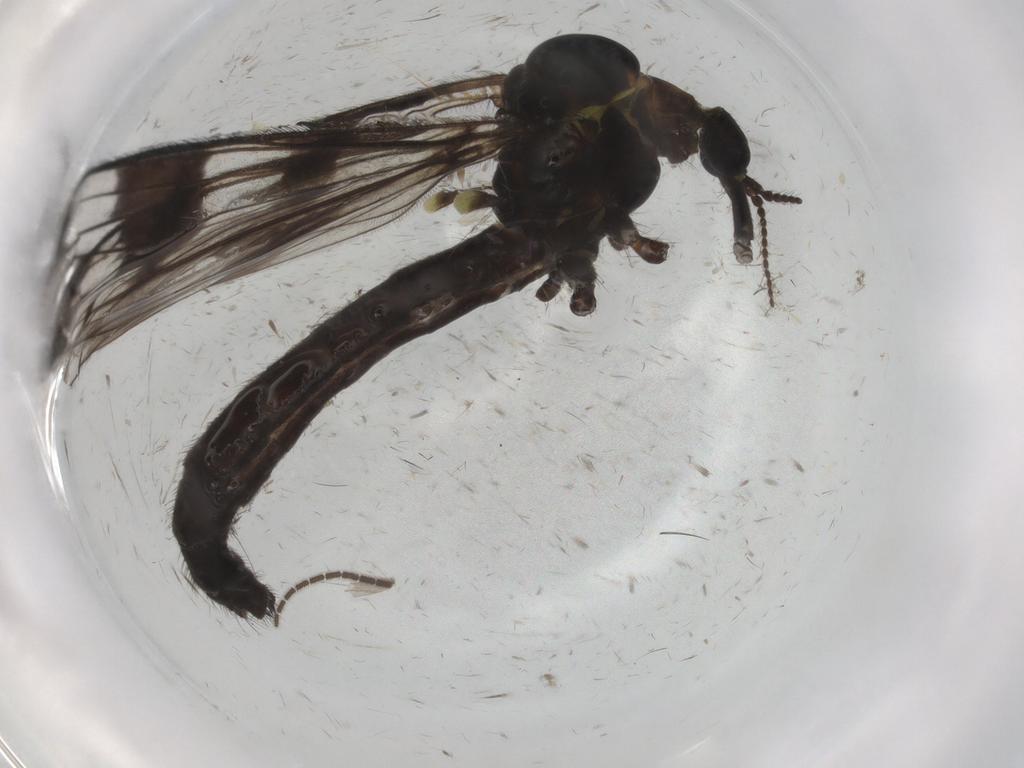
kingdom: Animalia
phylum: Arthropoda
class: Insecta
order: Diptera
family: Limoniidae
